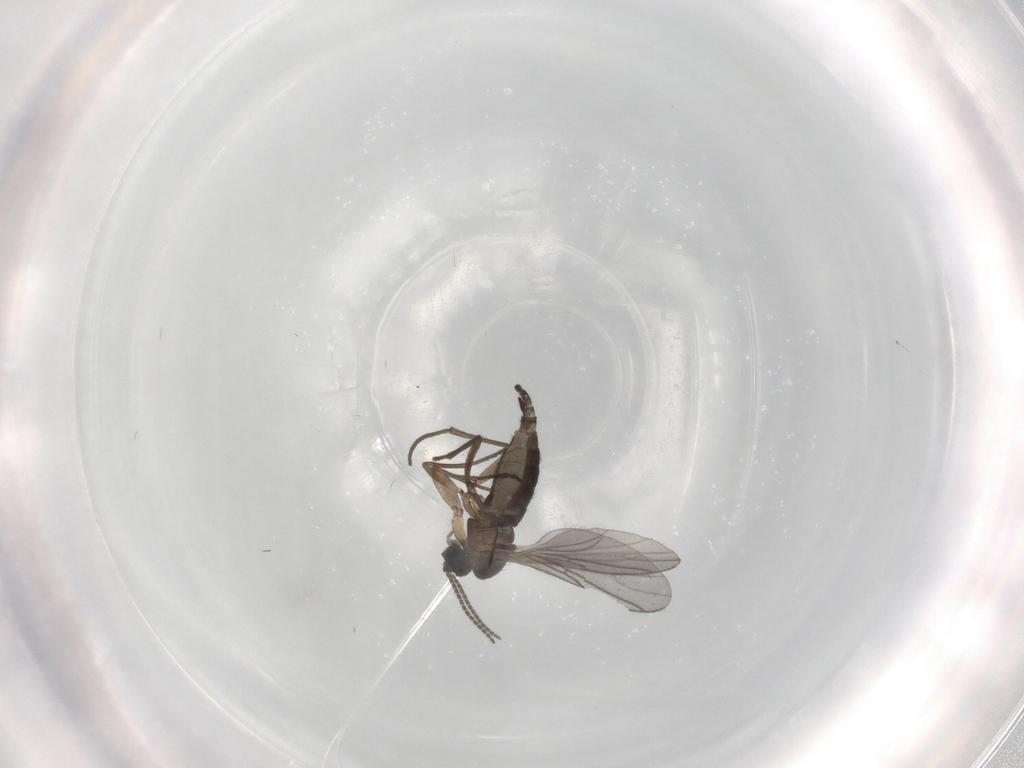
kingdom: Animalia
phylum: Arthropoda
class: Insecta
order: Diptera
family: Sciaridae
